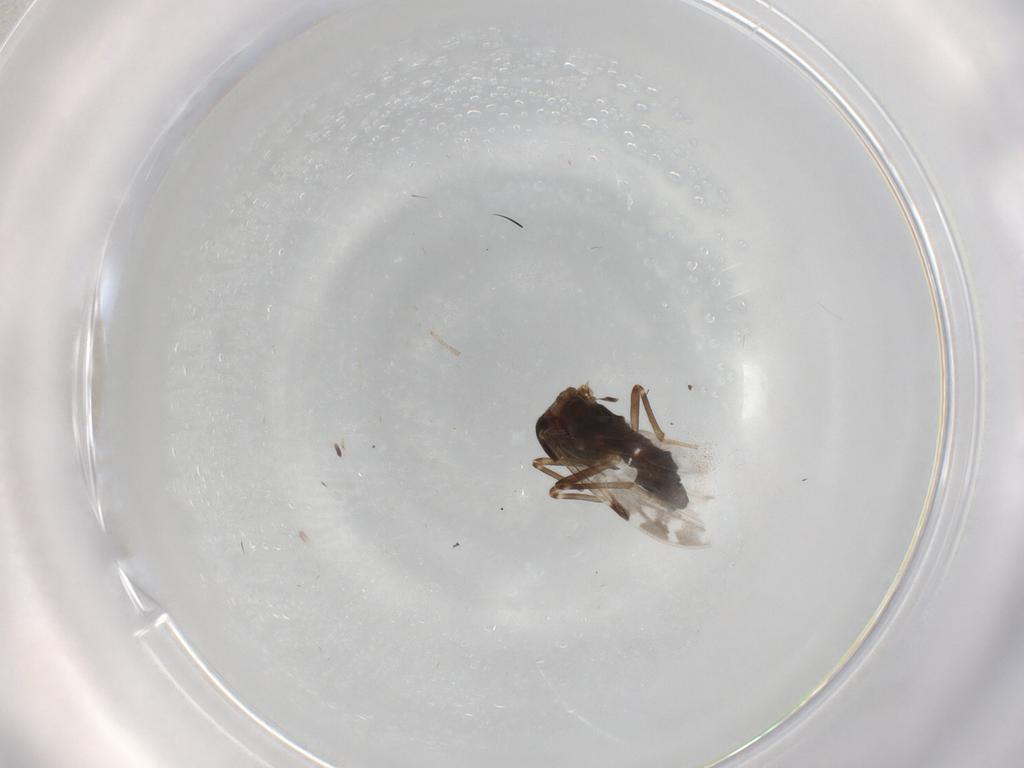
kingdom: Animalia
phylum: Arthropoda
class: Insecta
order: Diptera
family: Ceratopogonidae
